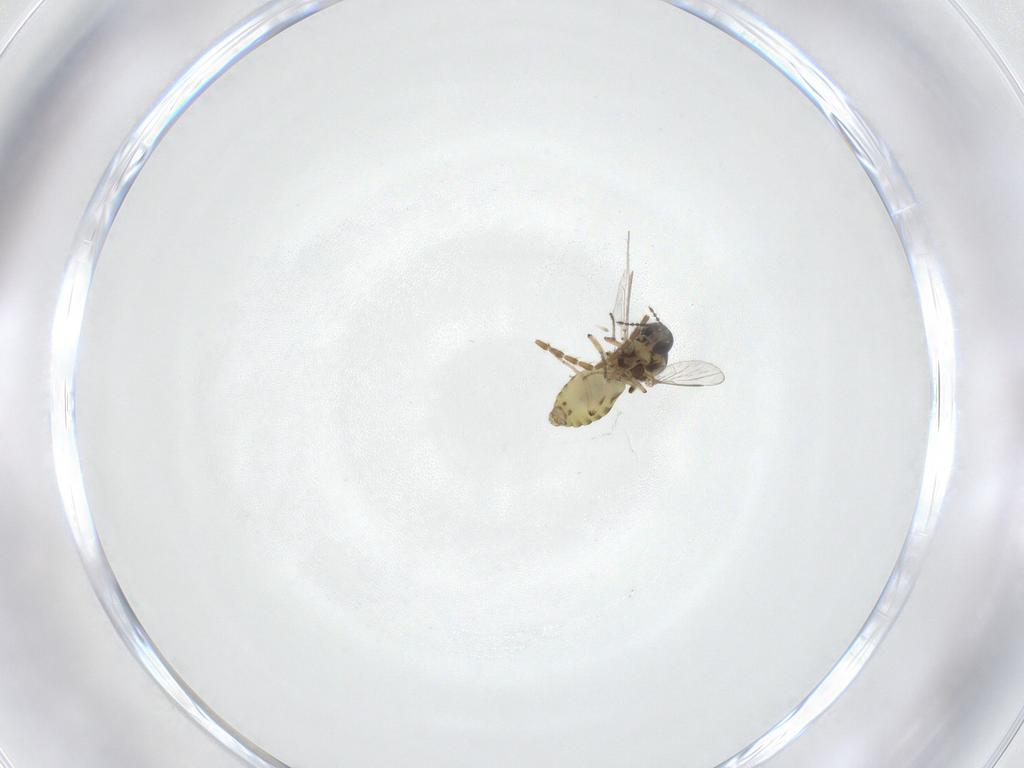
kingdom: Animalia
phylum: Arthropoda
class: Insecta
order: Diptera
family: Ceratopogonidae
